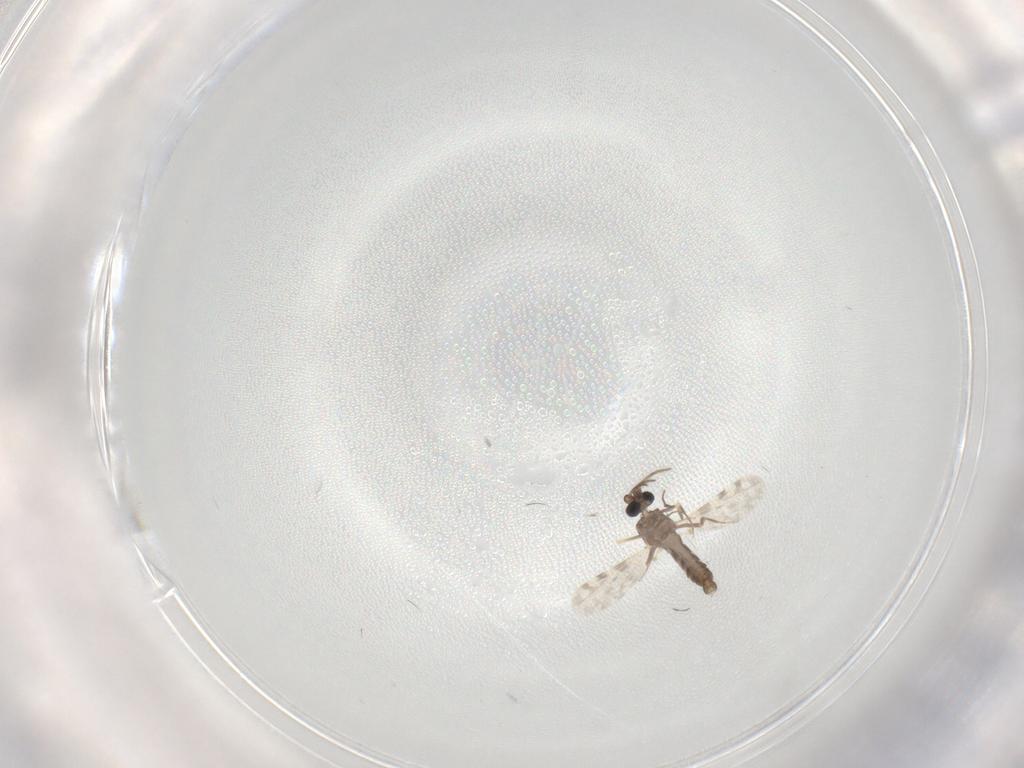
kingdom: Animalia
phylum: Arthropoda
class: Insecta
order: Diptera
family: Sphaeroceridae
